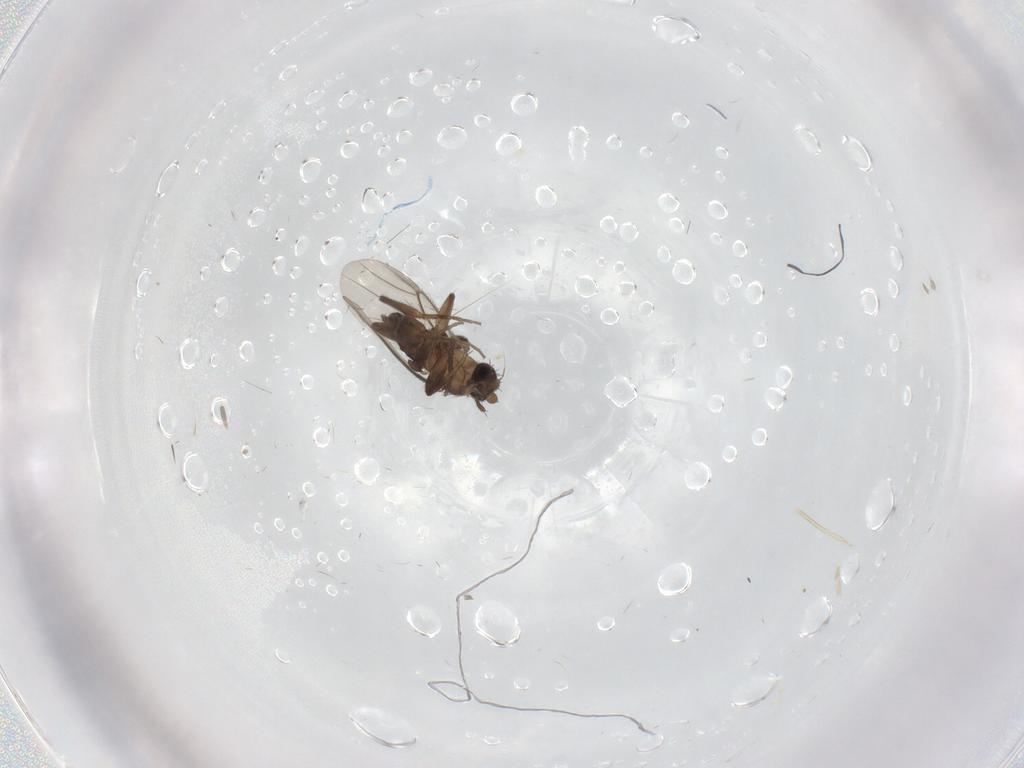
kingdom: Animalia
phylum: Arthropoda
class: Insecta
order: Diptera
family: Cecidomyiidae
